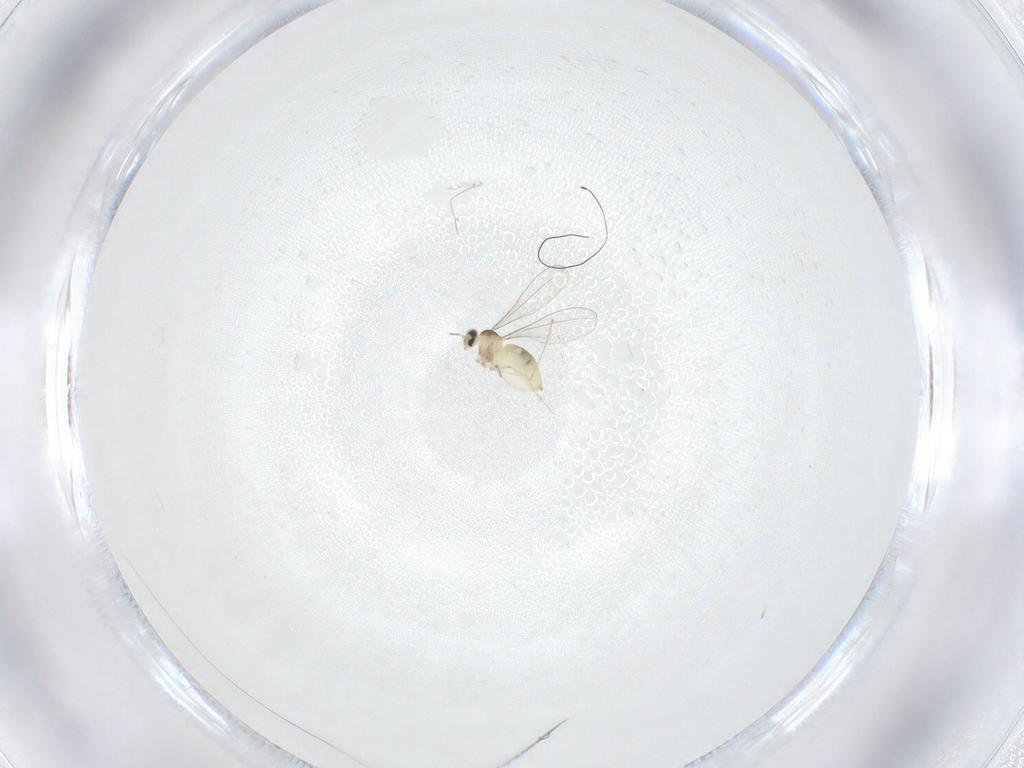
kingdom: Animalia
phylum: Arthropoda
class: Insecta
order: Diptera
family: Cecidomyiidae
